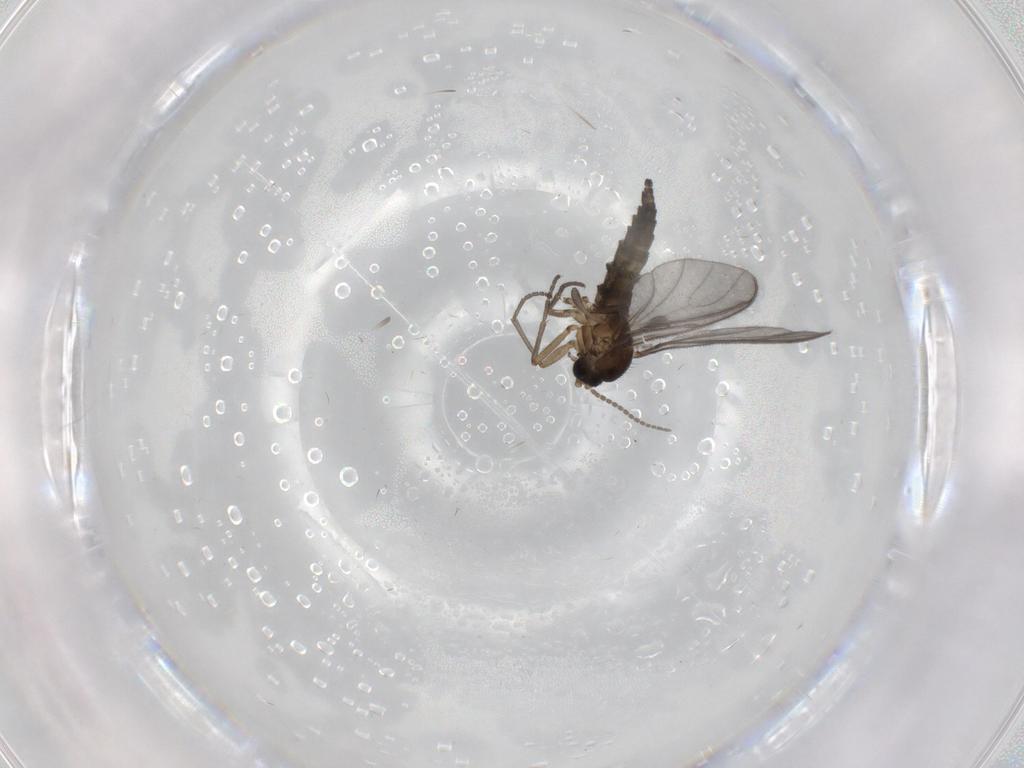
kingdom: Animalia
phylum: Arthropoda
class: Insecta
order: Diptera
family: Sciaridae
